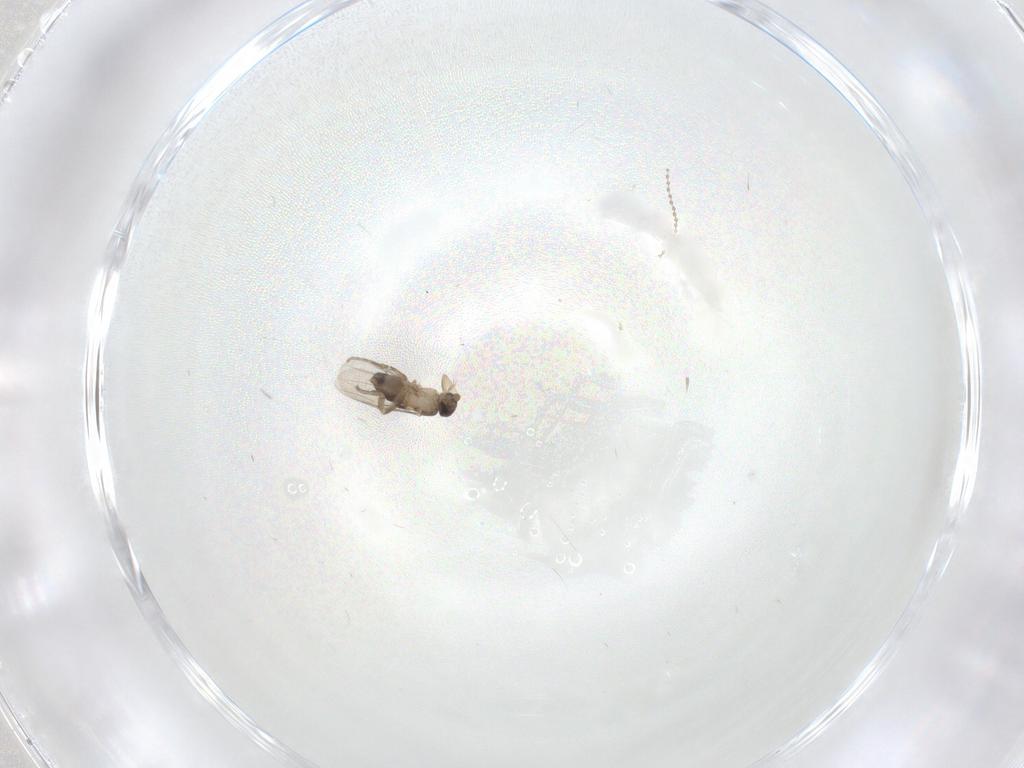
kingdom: Animalia
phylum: Arthropoda
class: Insecta
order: Diptera
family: Cecidomyiidae
